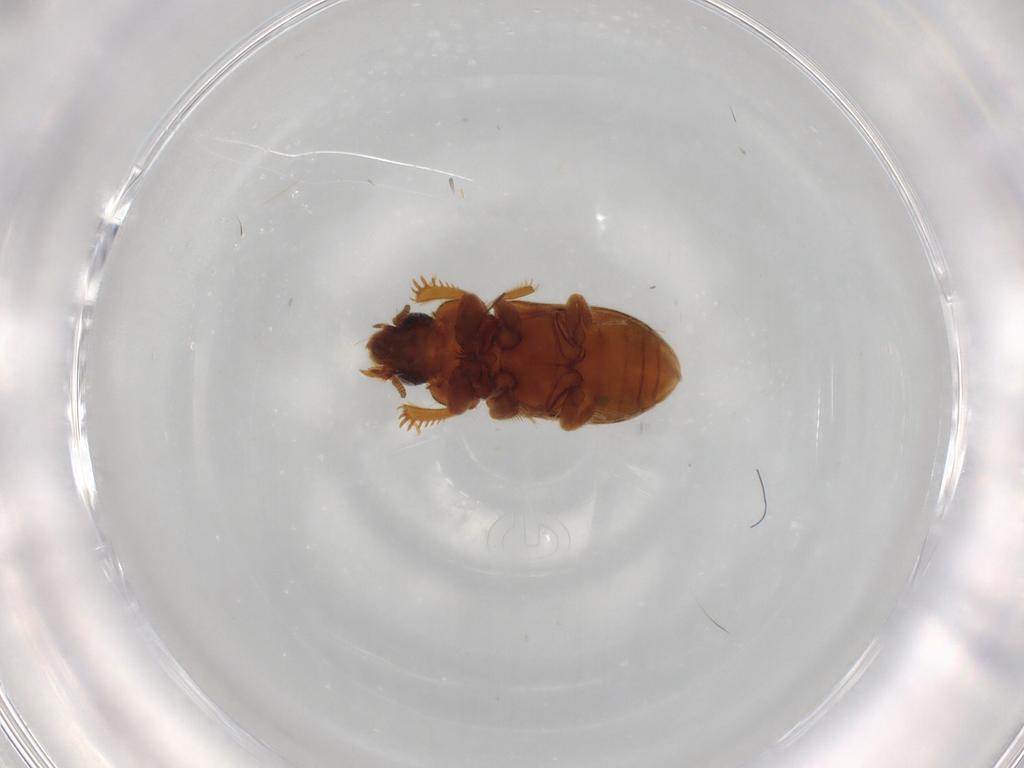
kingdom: Animalia
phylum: Arthropoda
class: Insecta
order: Coleoptera
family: Heteroceridae
